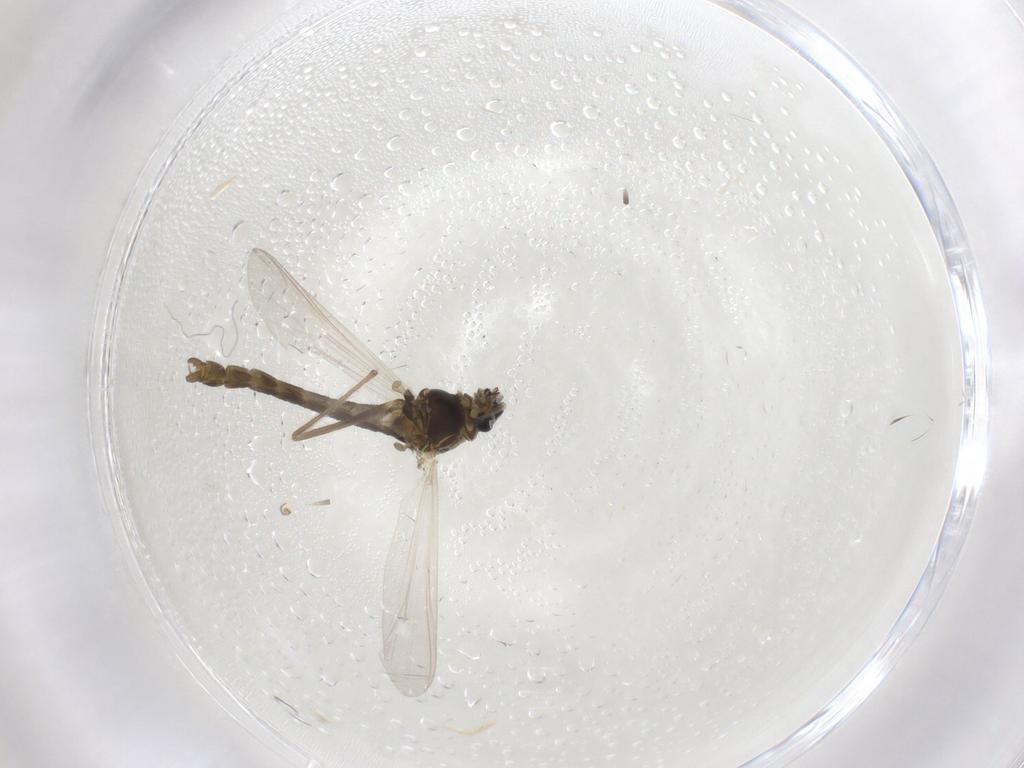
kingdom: Animalia
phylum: Arthropoda
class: Insecta
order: Diptera
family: Chironomidae
